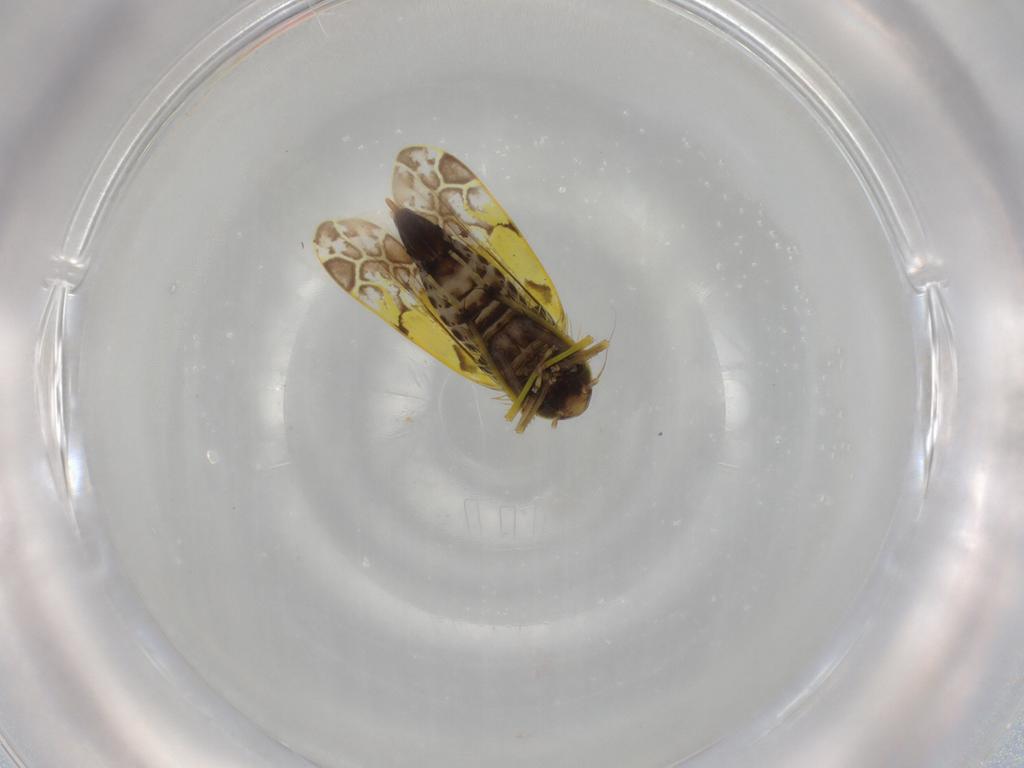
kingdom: Animalia
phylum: Arthropoda
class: Insecta
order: Hemiptera
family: Cicadellidae
